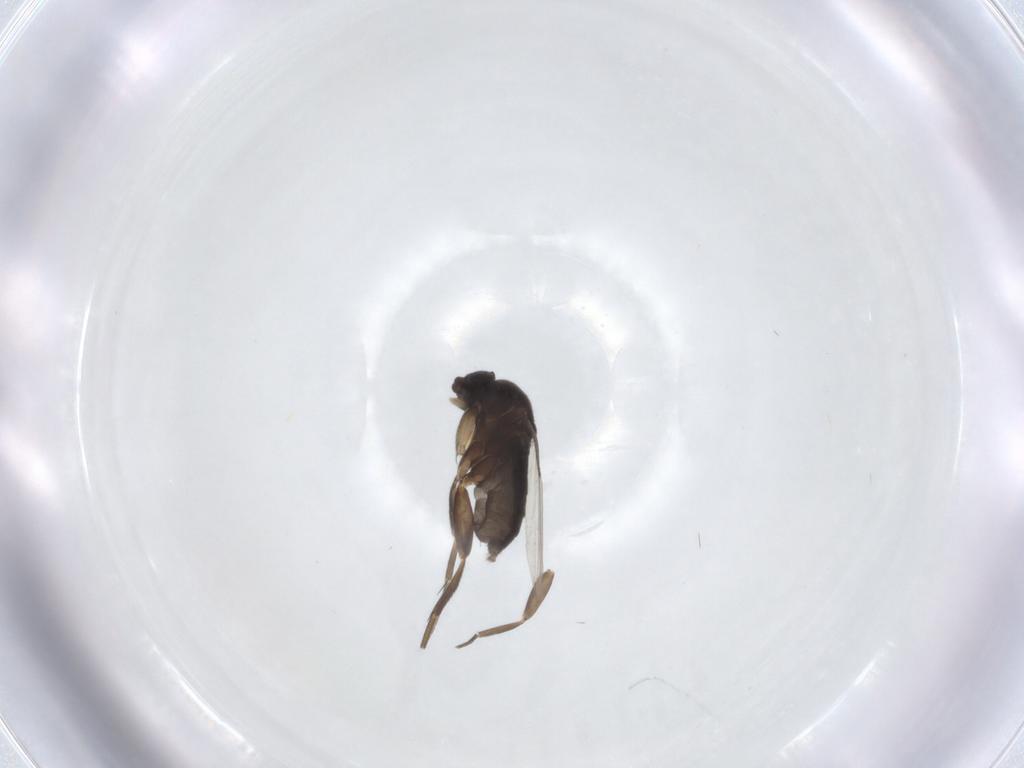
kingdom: Animalia
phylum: Arthropoda
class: Insecta
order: Diptera
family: Phoridae
